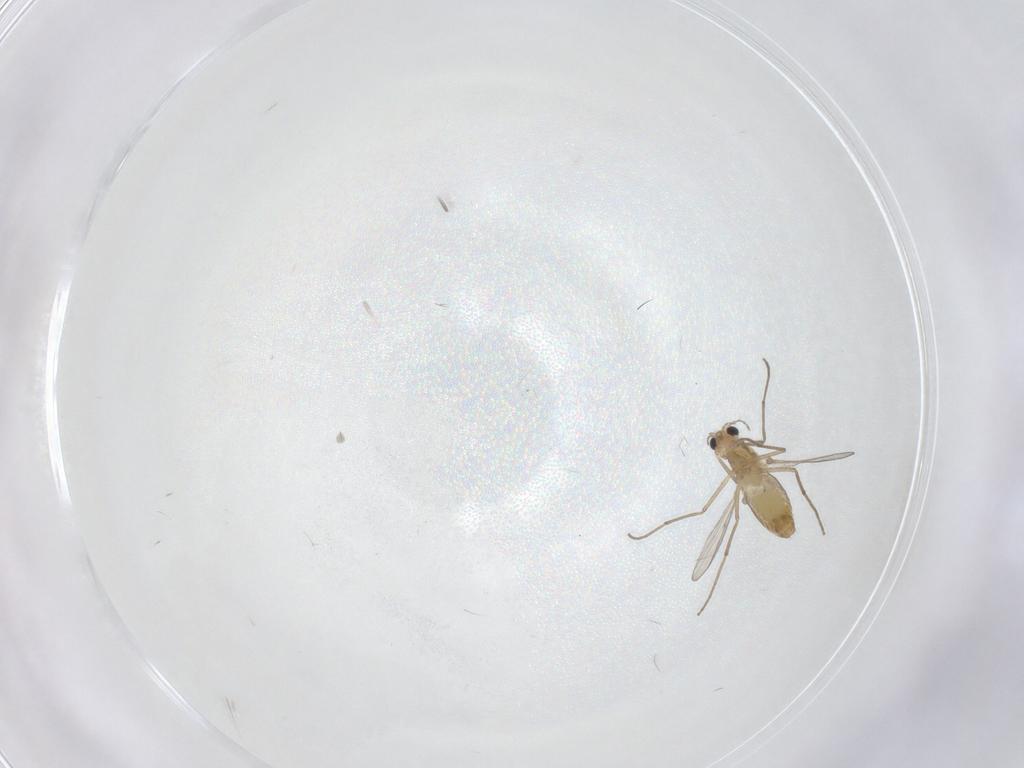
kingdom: Animalia
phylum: Arthropoda
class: Insecta
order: Diptera
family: Chironomidae
